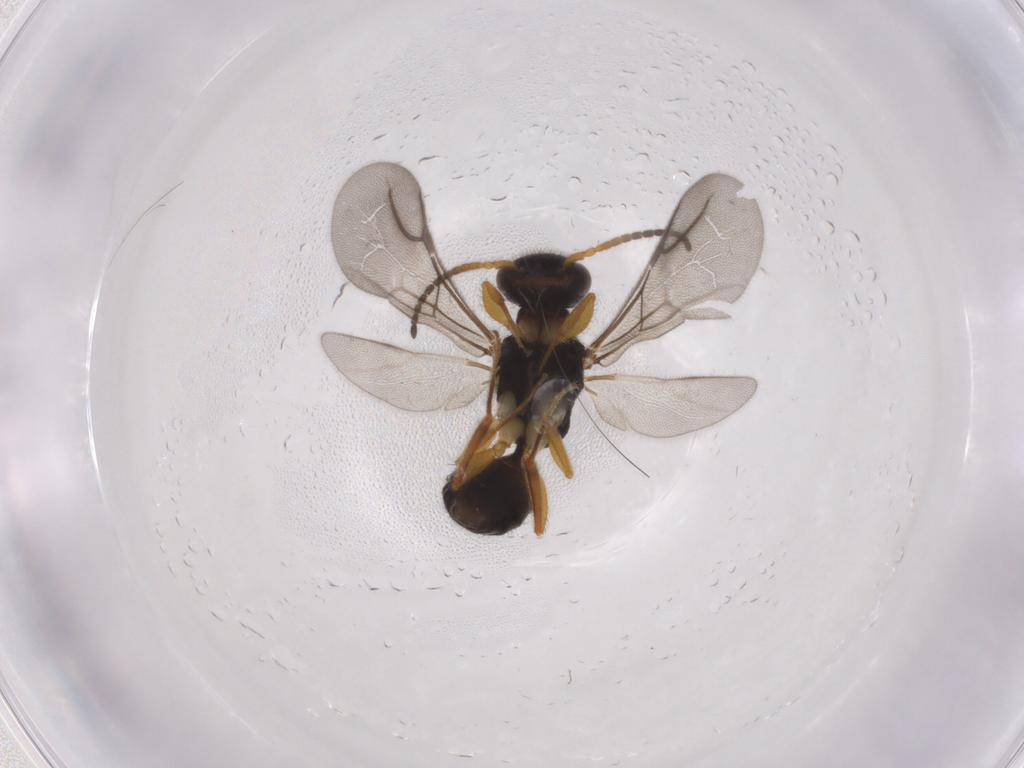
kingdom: Animalia
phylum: Arthropoda
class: Insecta
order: Hymenoptera
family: Bethylidae
